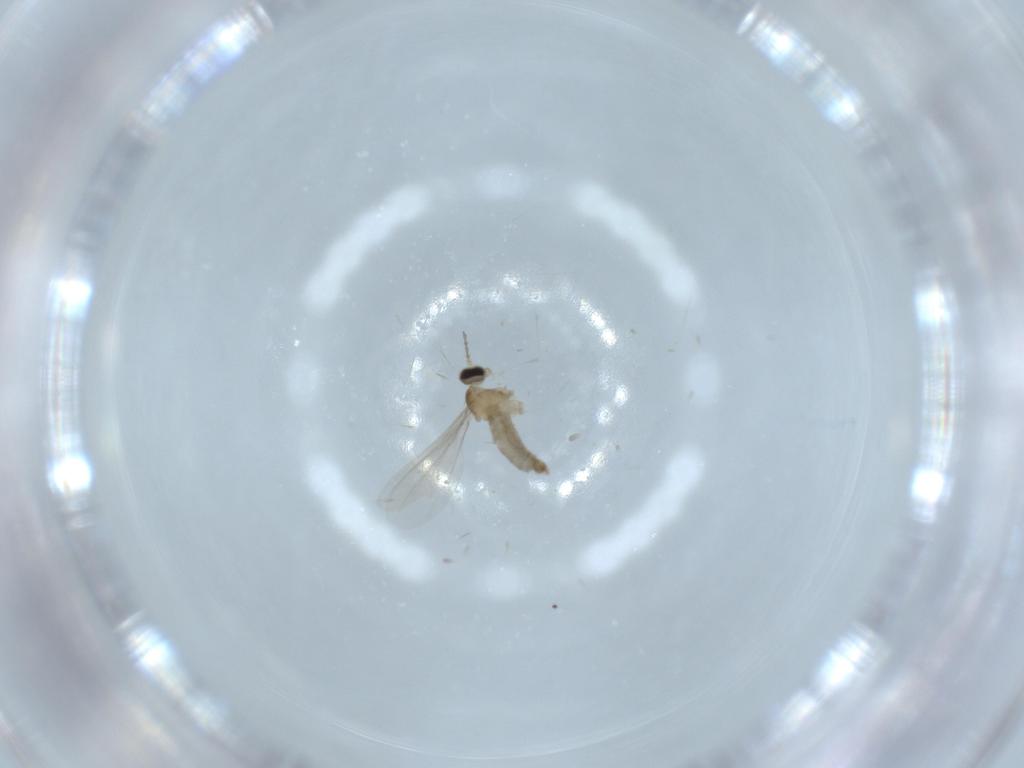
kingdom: Animalia
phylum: Arthropoda
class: Insecta
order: Diptera
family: Cecidomyiidae
